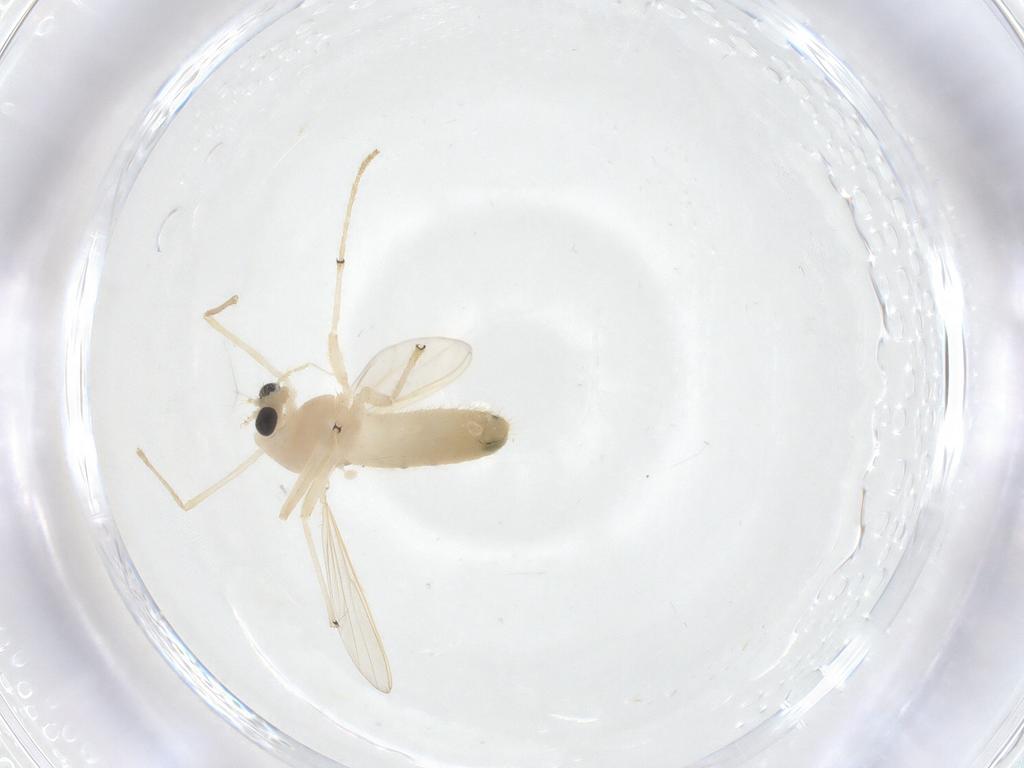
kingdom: Animalia
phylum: Arthropoda
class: Insecta
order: Diptera
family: Chironomidae
